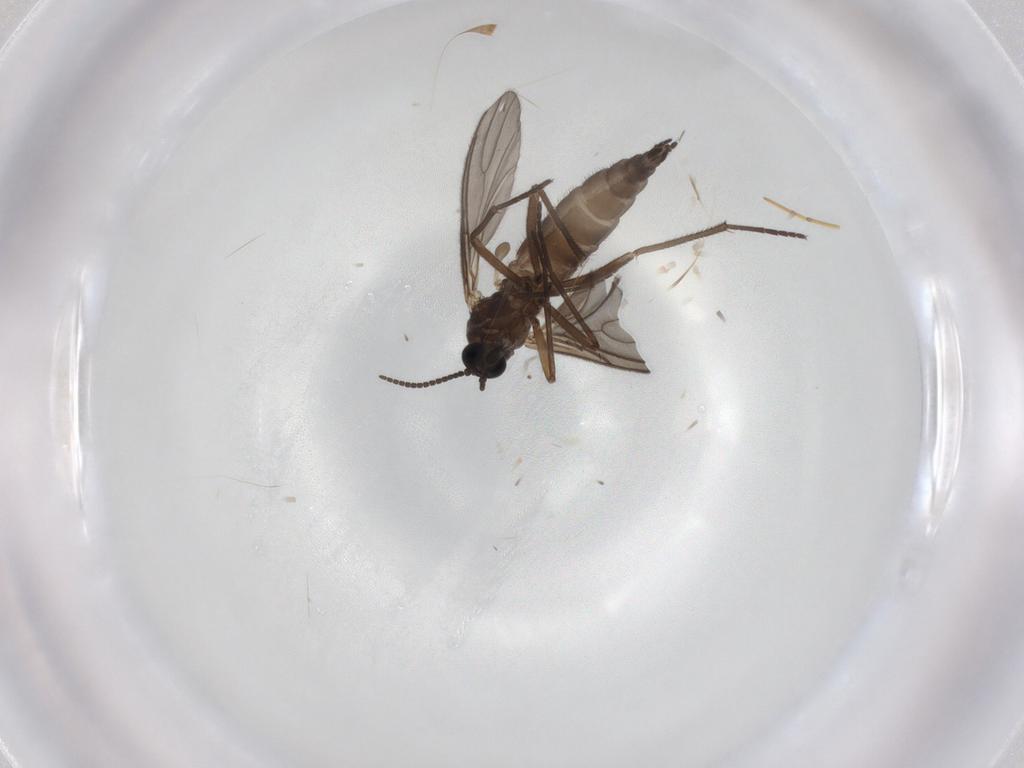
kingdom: Animalia
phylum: Arthropoda
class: Insecta
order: Diptera
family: Sciaridae
